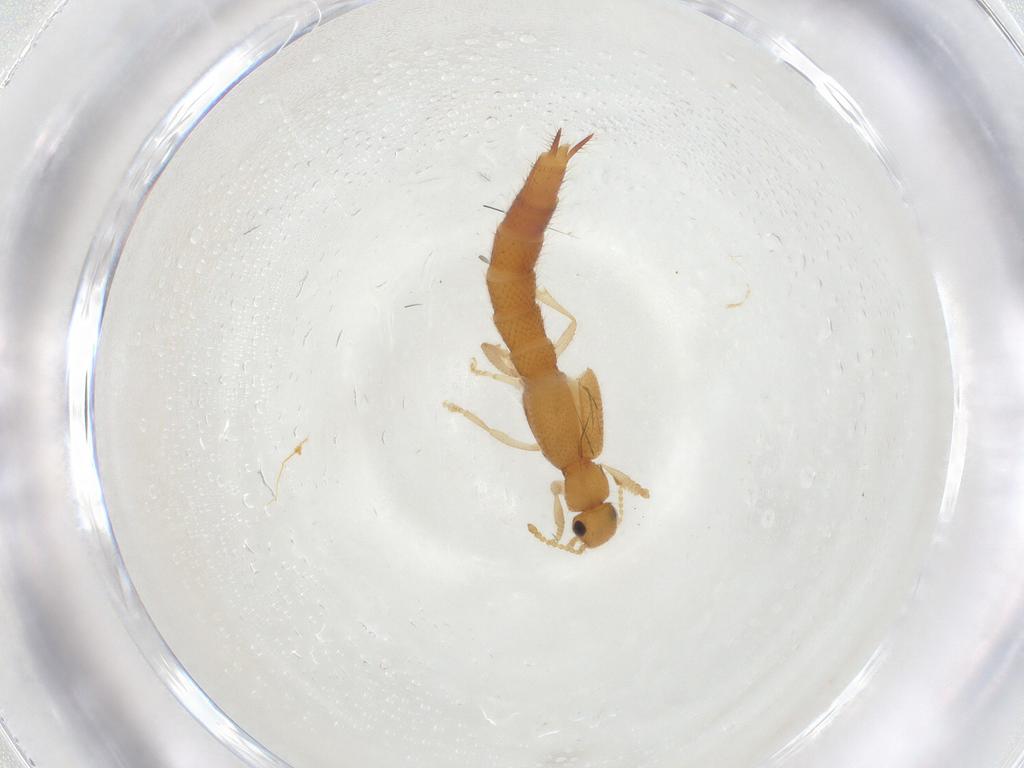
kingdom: Animalia
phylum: Arthropoda
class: Insecta
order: Coleoptera
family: Staphylinidae
